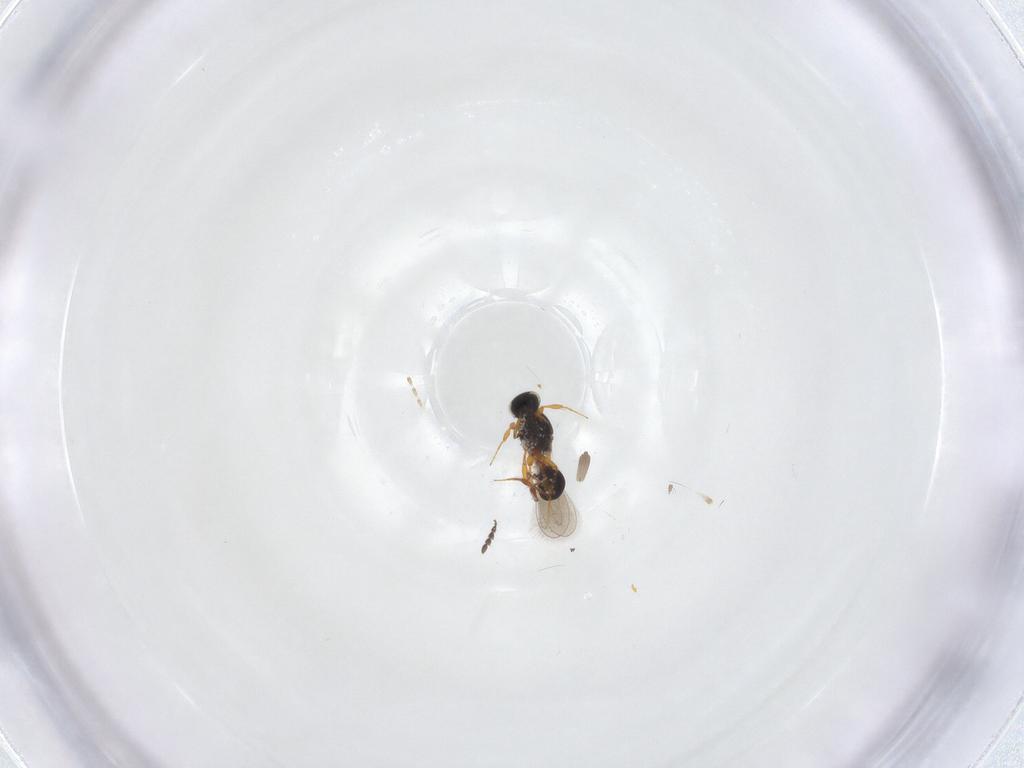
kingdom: Animalia
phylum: Arthropoda
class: Insecta
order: Hymenoptera
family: Platygastridae
